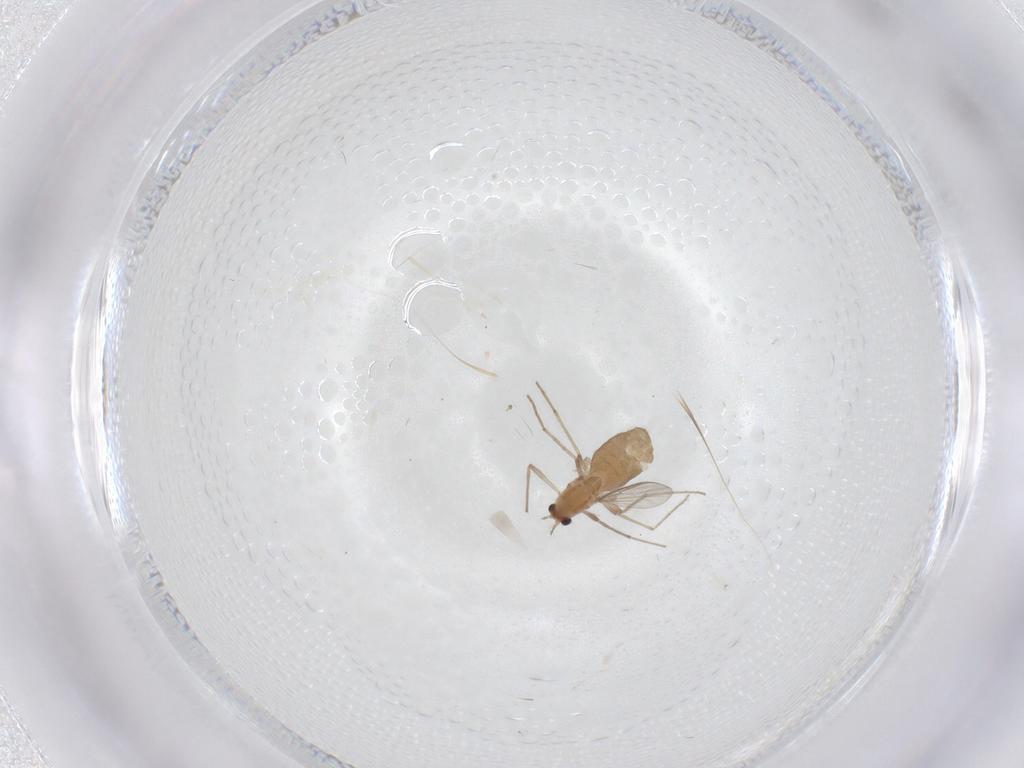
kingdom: Animalia
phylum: Arthropoda
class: Insecta
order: Diptera
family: Cecidomyiidae
